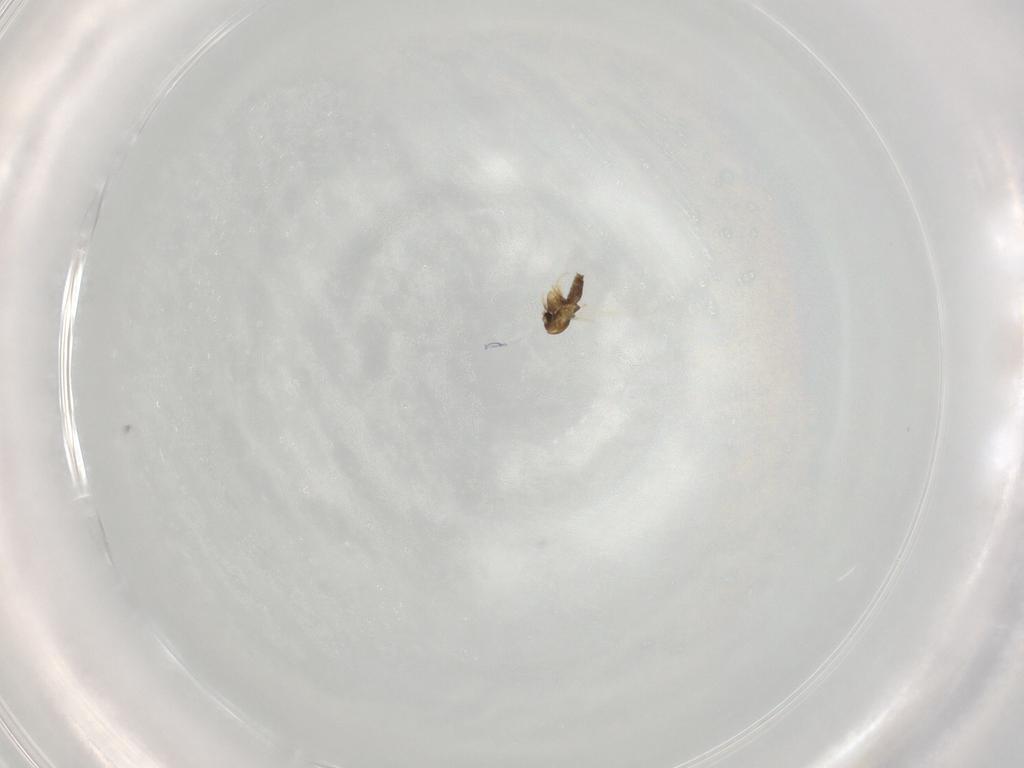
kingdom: Animalia
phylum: Arthropoda
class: Insecta
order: Diptera
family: Chironomidae
